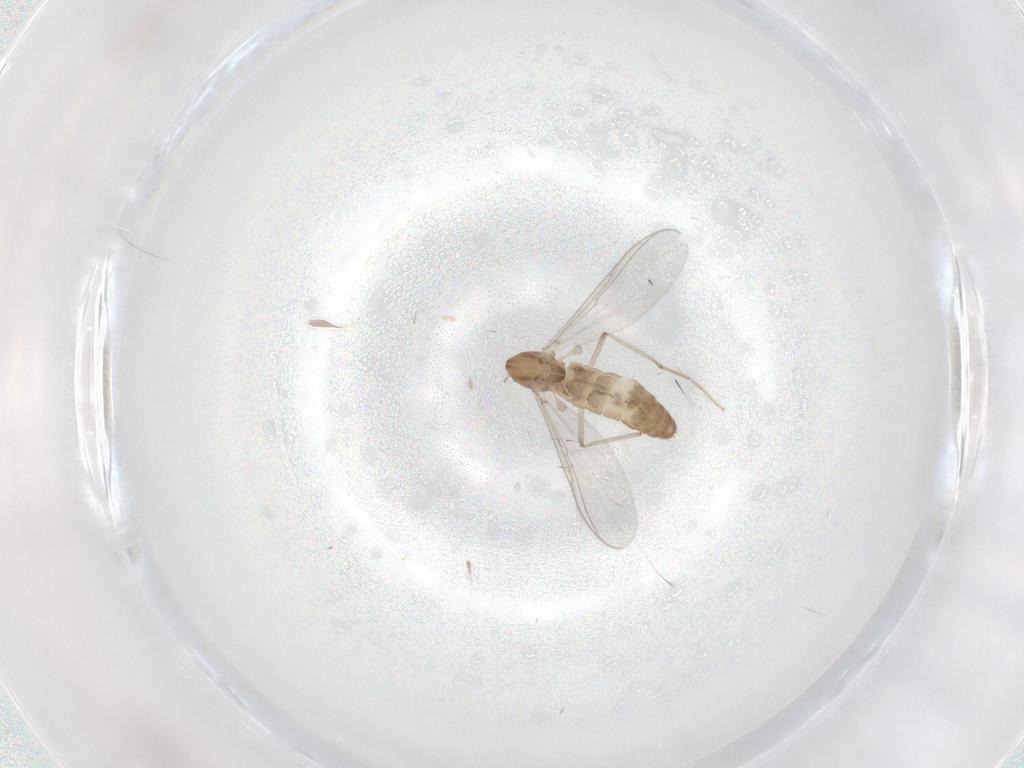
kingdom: Animalia
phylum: Arthropoda
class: Insecta
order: Diptera
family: Chironomidae
